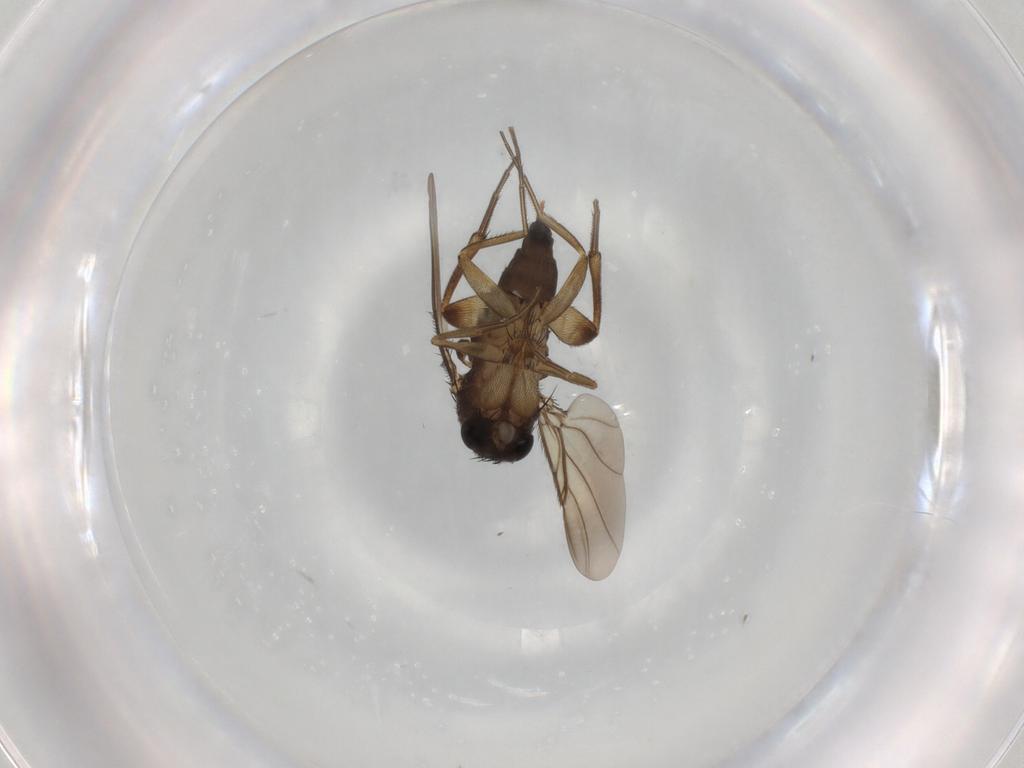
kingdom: Animalia
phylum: Arthropoda
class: Insecta
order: Diptera
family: Phoridae
